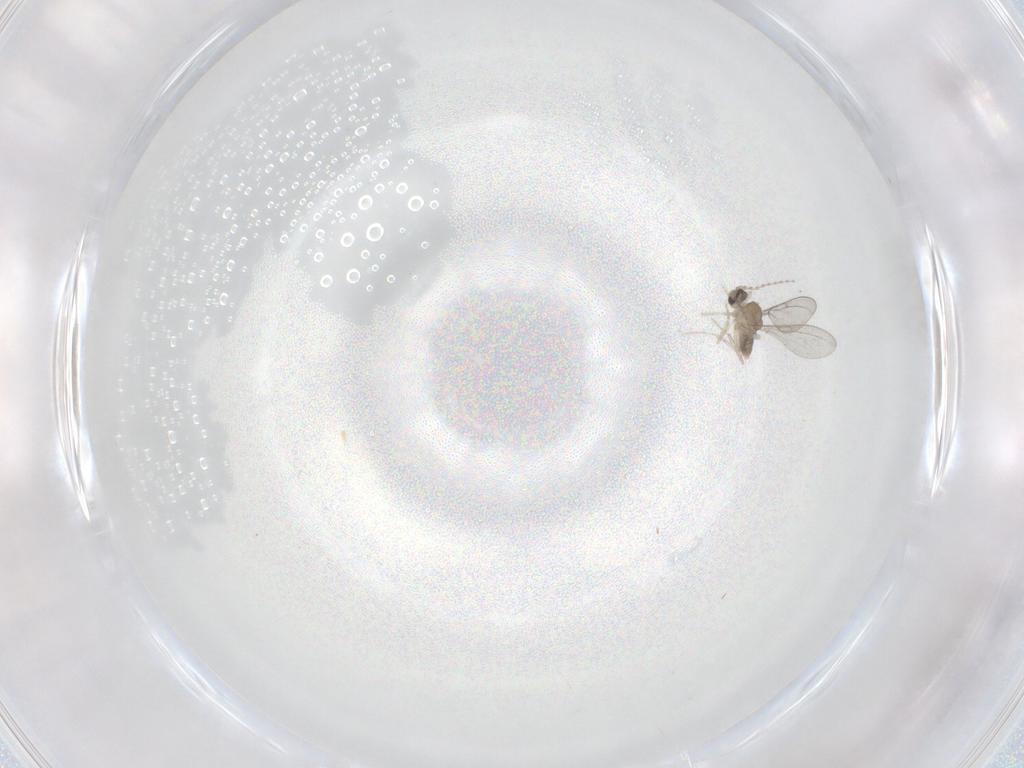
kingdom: Animalia
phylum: Arthropoda
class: Insecta
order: Diptera
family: Cecidomyiidae
